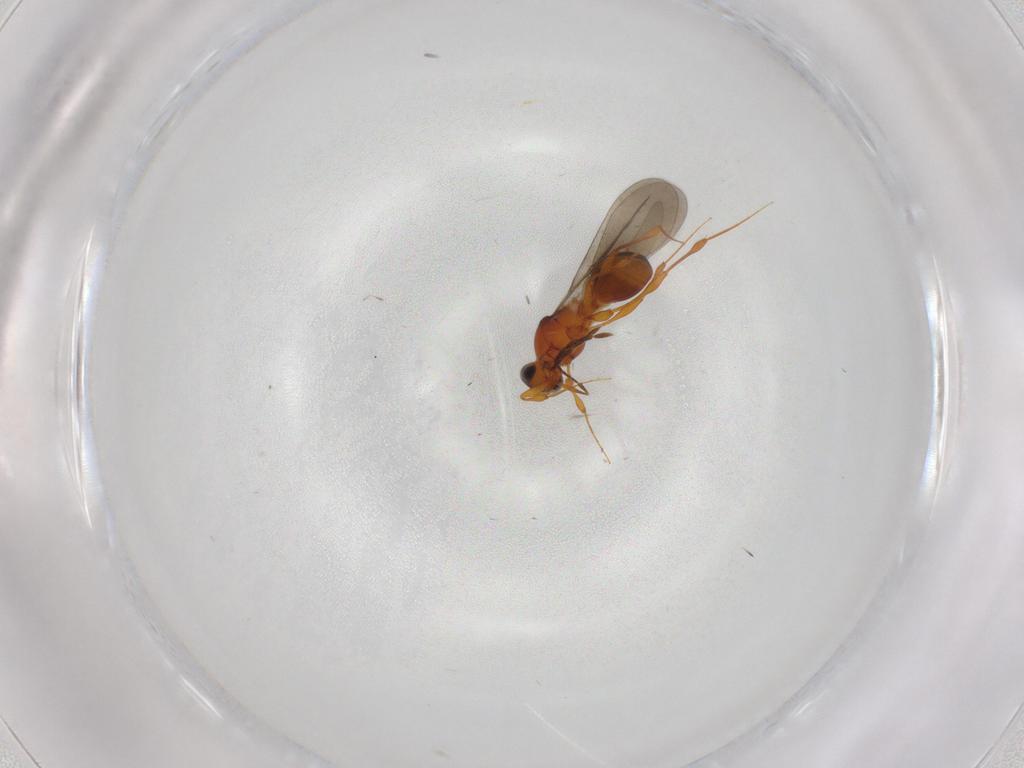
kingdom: Animalia
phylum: Arthropoda
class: Insecta
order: Hymenoptera
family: Platygastridae
